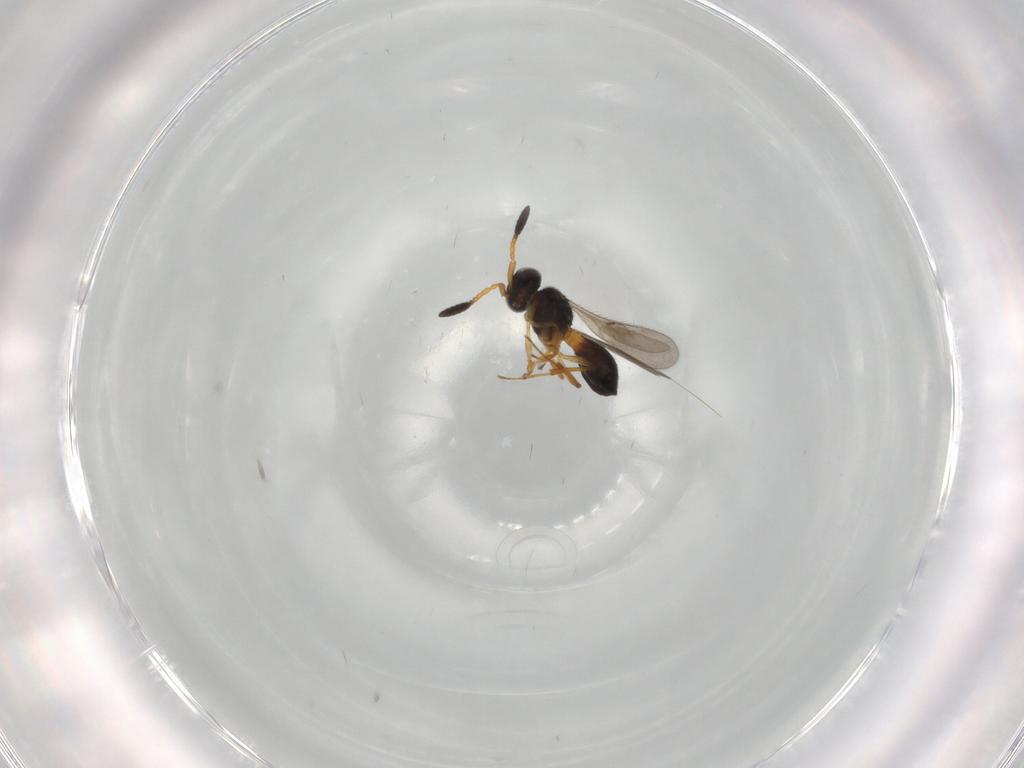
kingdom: Animalia
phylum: Arthropoda
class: Insecta
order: Hymenoptera
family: Scelionidae
